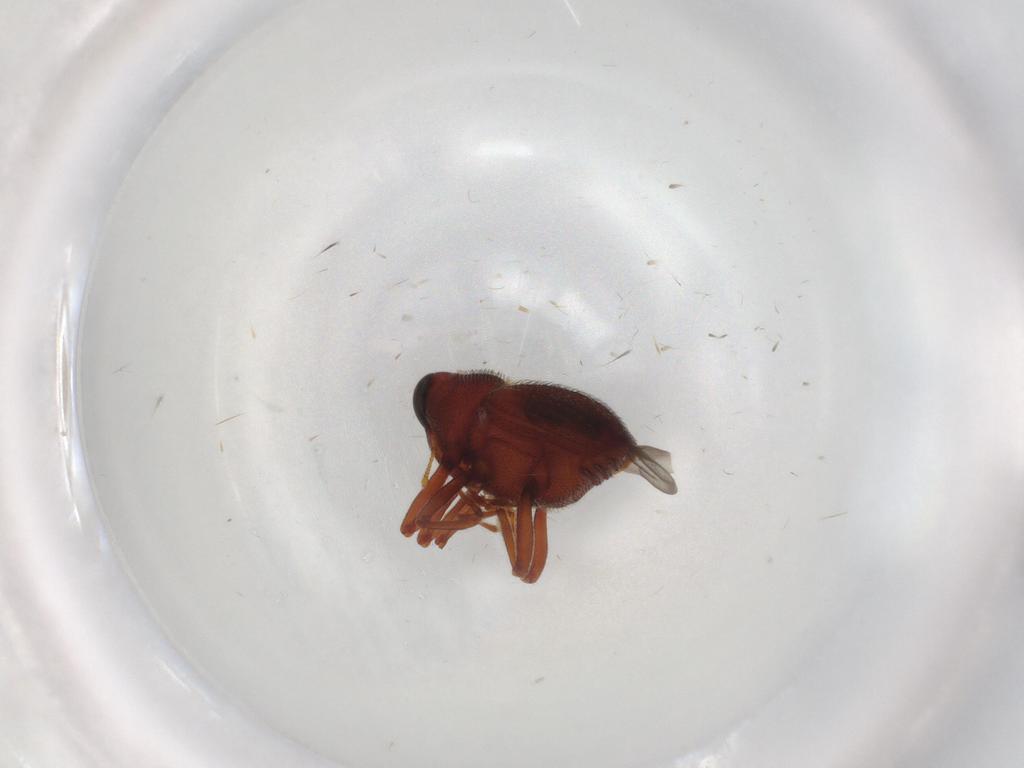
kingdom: Animalia
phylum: Arthropoda
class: Insecta
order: Coleoptera
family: Curculionidae
